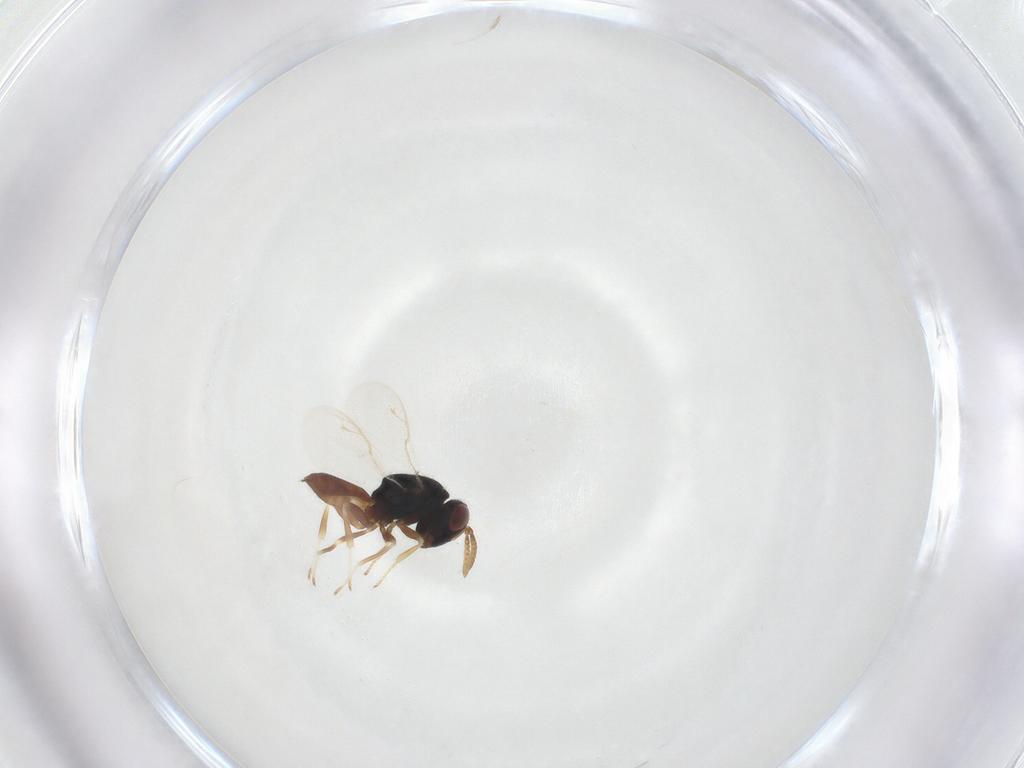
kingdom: Animalia
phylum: Arthropoda
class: Insecta
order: Hymenoptera
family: Pteromalidae
